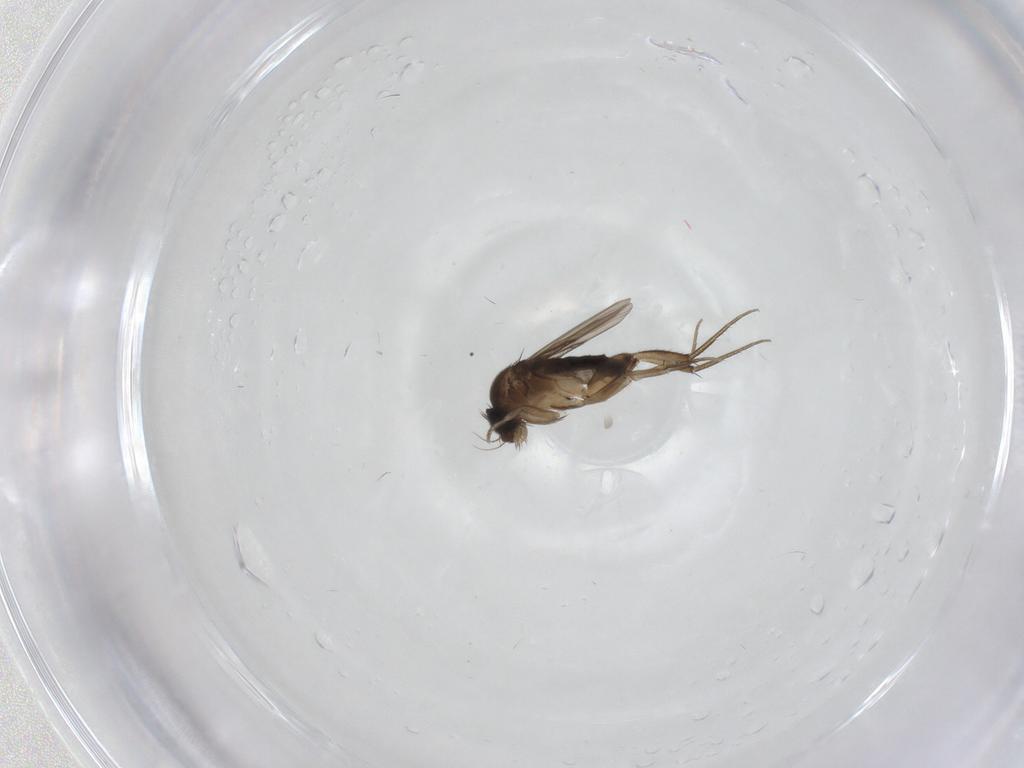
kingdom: Animalia
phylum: Arthropoda
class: Insecta
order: Diptera
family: Phoridae
